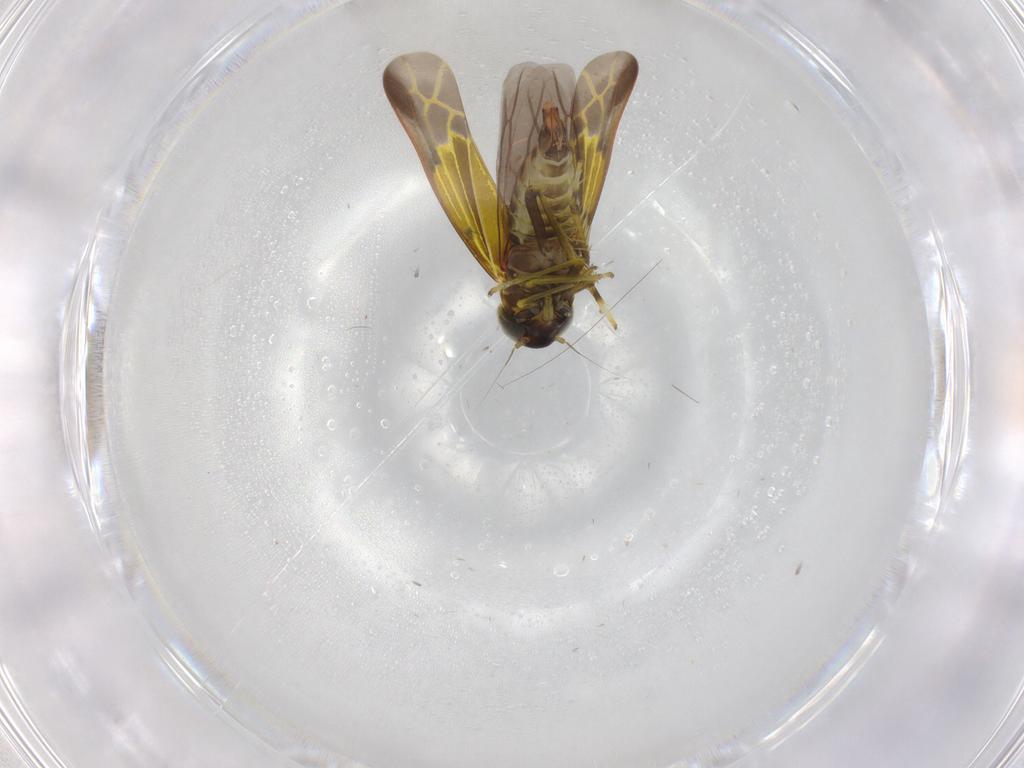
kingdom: Animalia
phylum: Arthropoda
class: Insecta
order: Hemiptera
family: Cicadellidae
